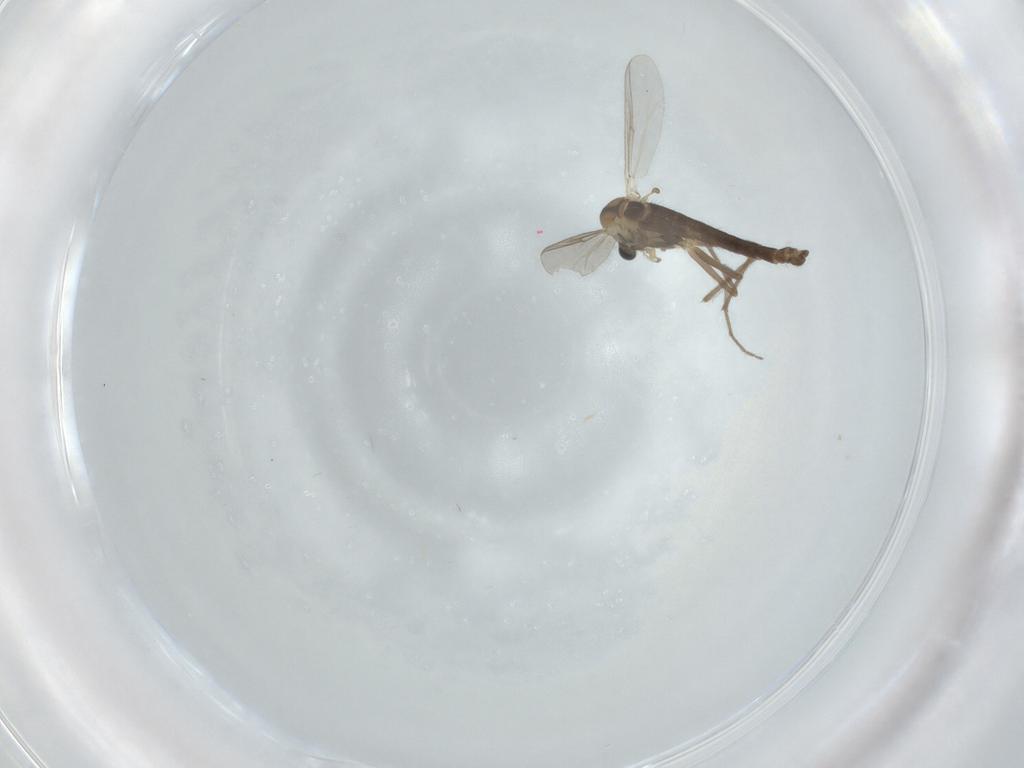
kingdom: Animalia
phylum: Arthropoda
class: Insecta
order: Diptera
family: Chironomidae
